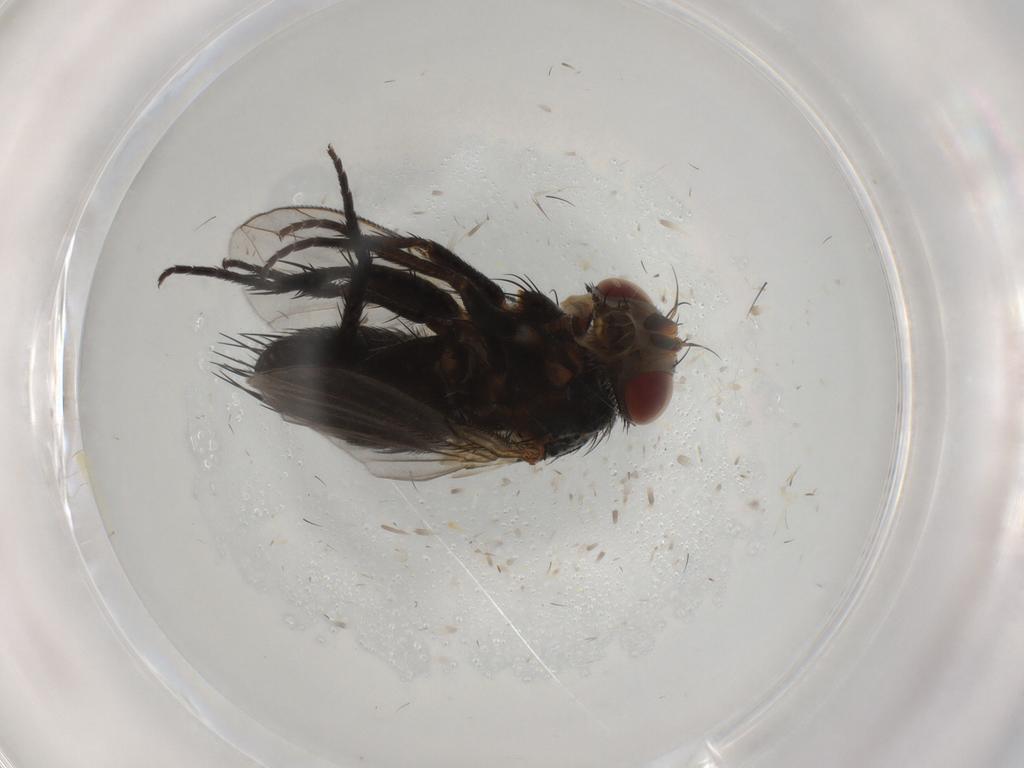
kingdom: Animalia
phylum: Arthropoda
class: Insecta
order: Diptera
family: Tachinidae
